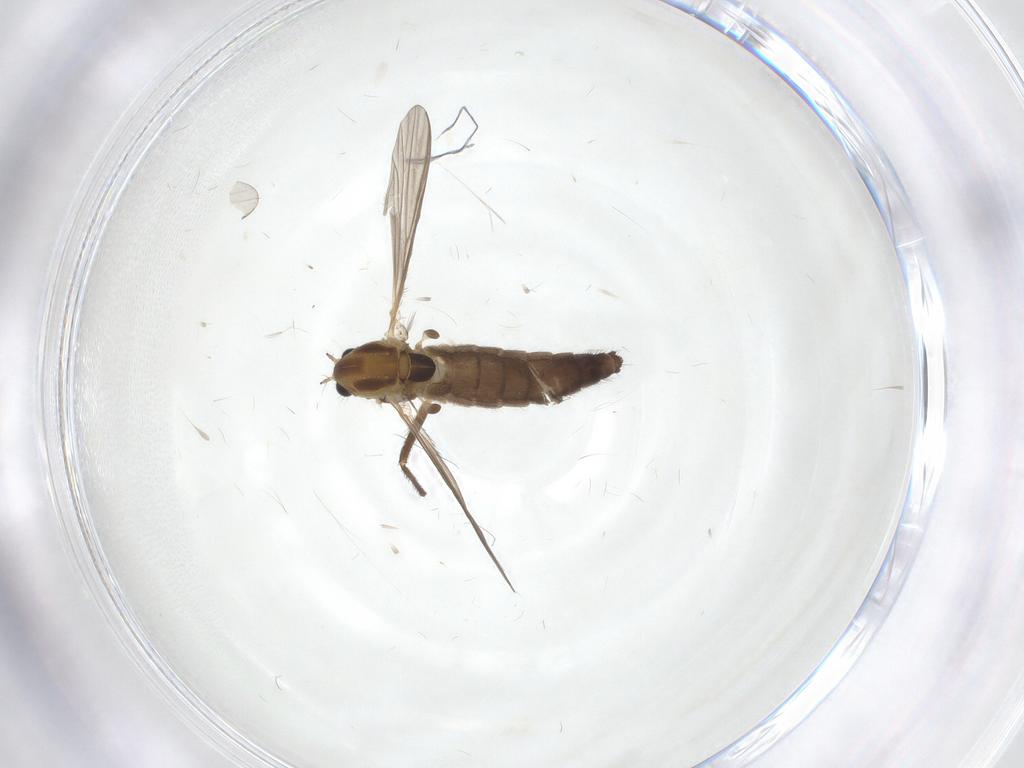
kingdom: Animalia
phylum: Arthropoda
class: Insecta
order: Diptera
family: Chironomidae
